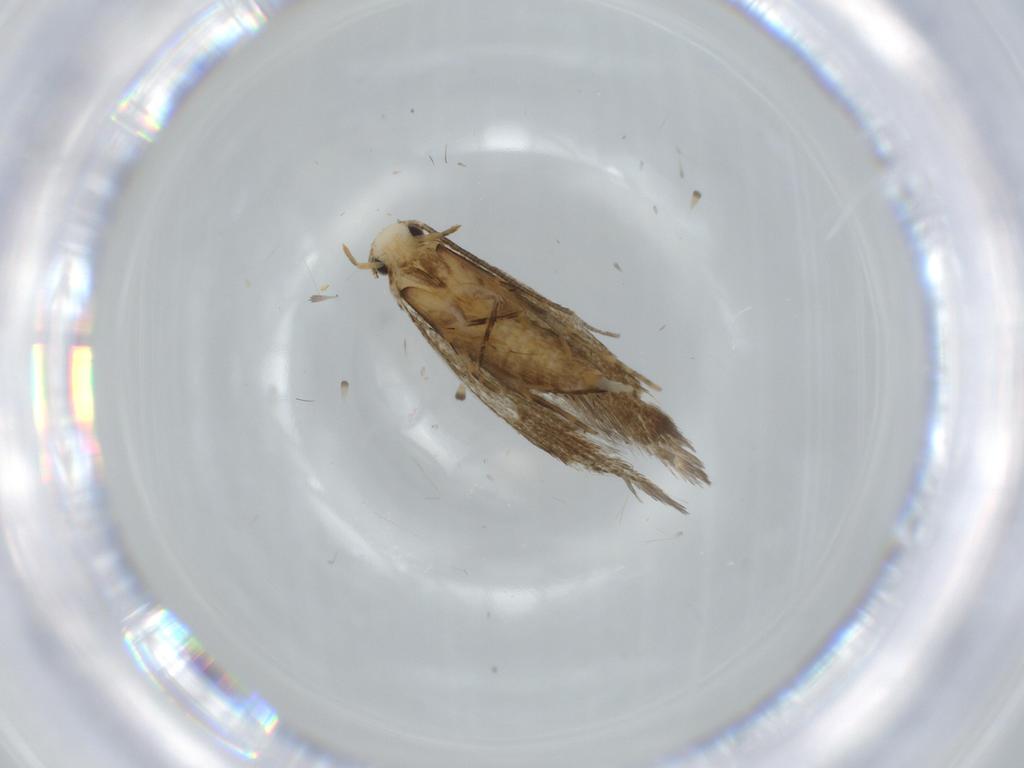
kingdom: Animalia
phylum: Arthropoda
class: Insecta
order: Lepidoptera
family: Tineidae
